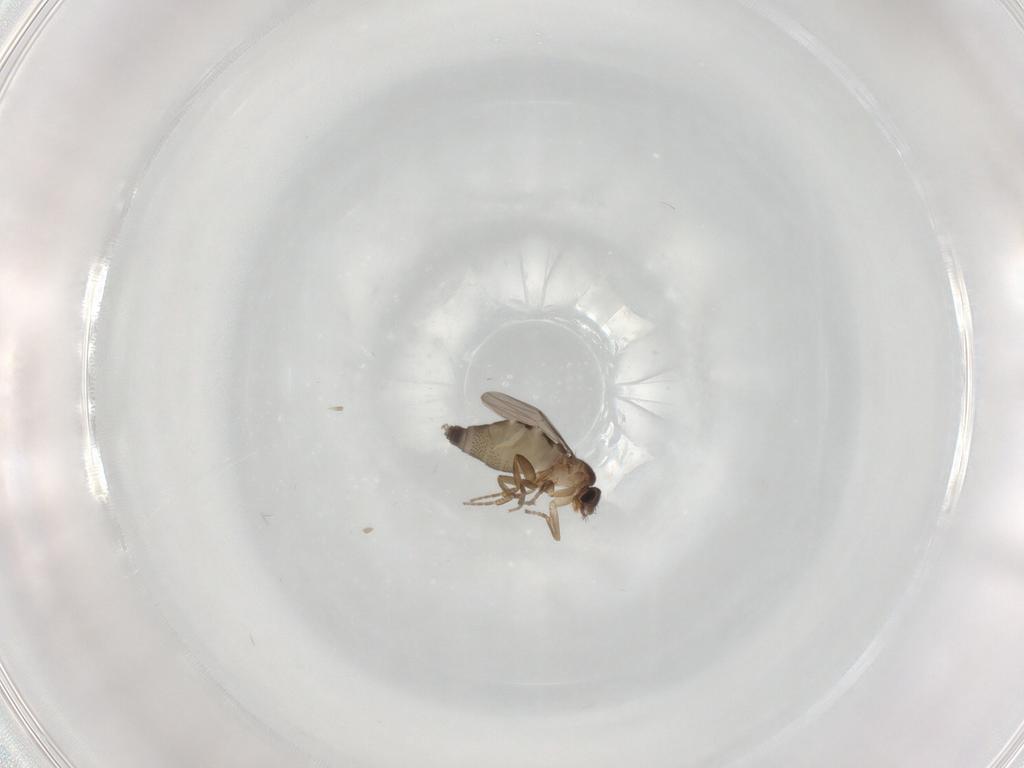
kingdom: Animalia
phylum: Arthropoda
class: Insecta
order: Diptera
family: Phoridae
